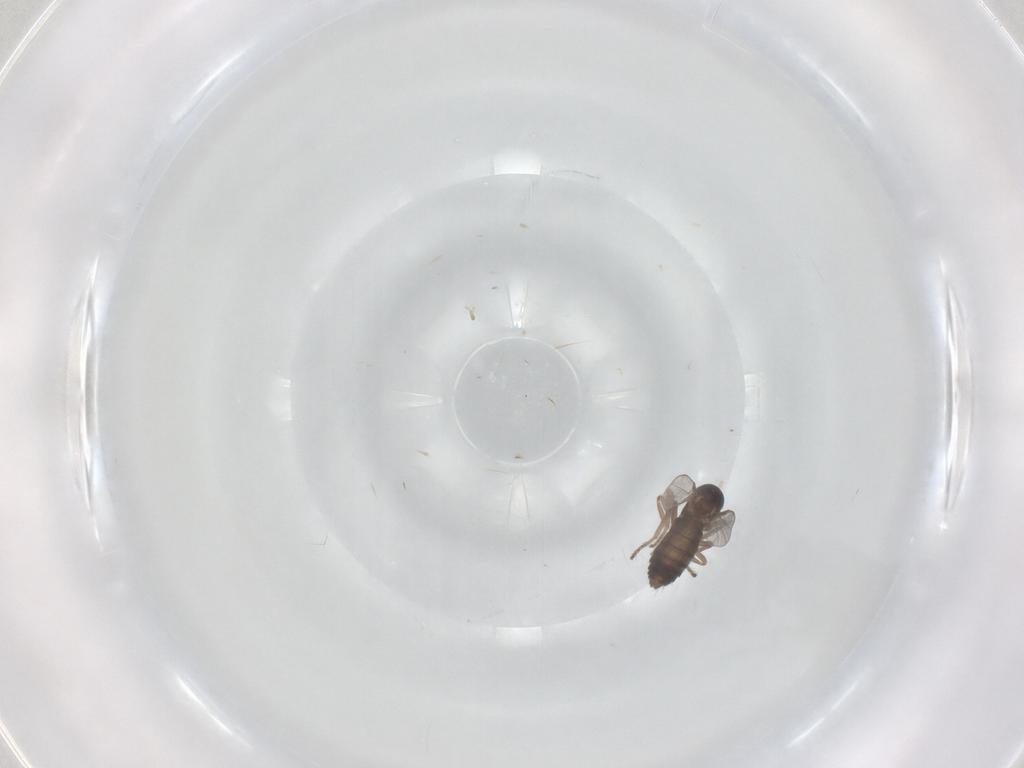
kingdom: Animalia
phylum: Arthropoda
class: Insecta
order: Diptera
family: Ceratopogonidae
